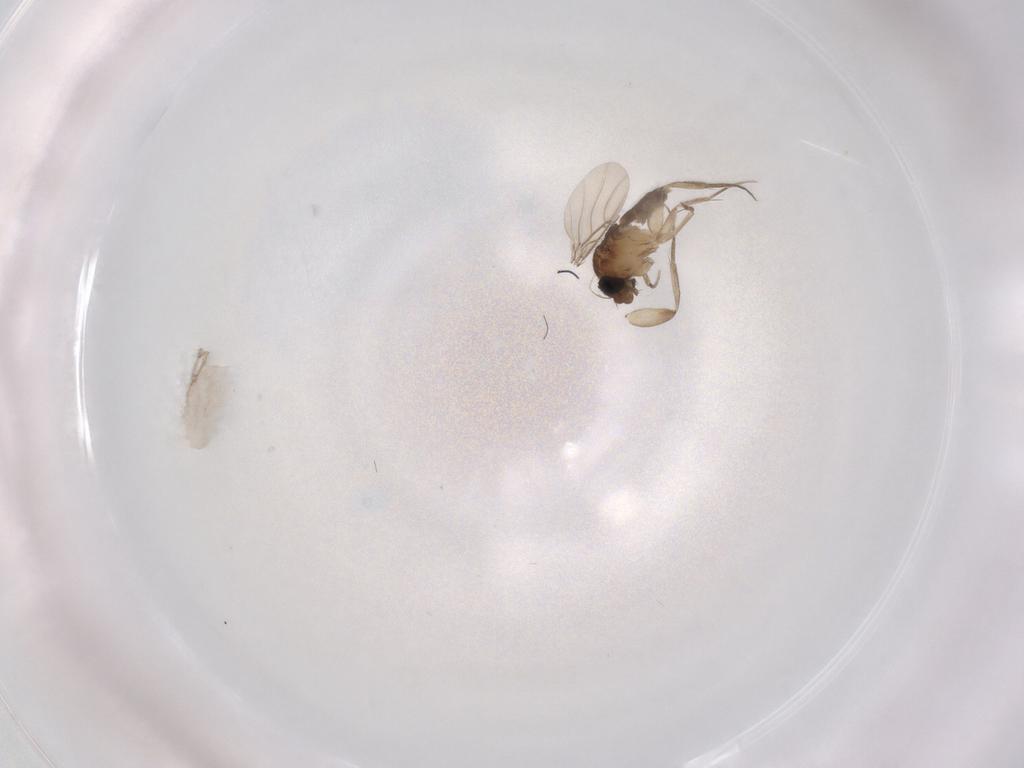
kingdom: Animalia
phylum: Arthropoda
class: Insecta
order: Diptera
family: Phoridae
